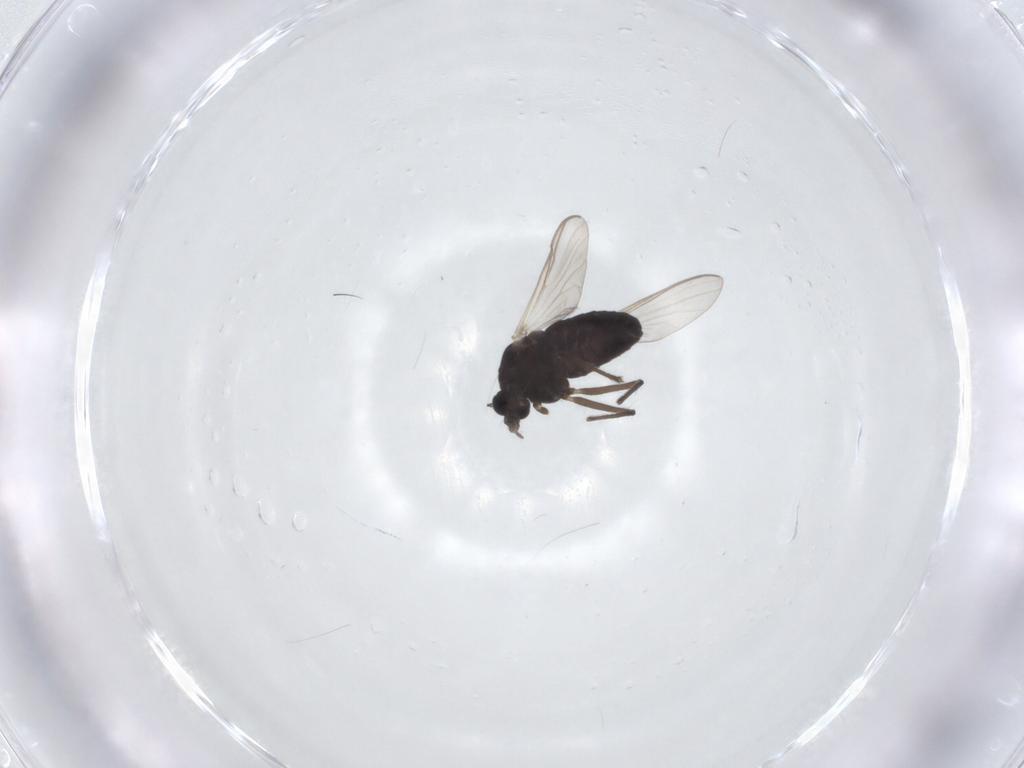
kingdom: Animalia
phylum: Arthropoda
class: Insecta
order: Diptera
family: Chironomidae
